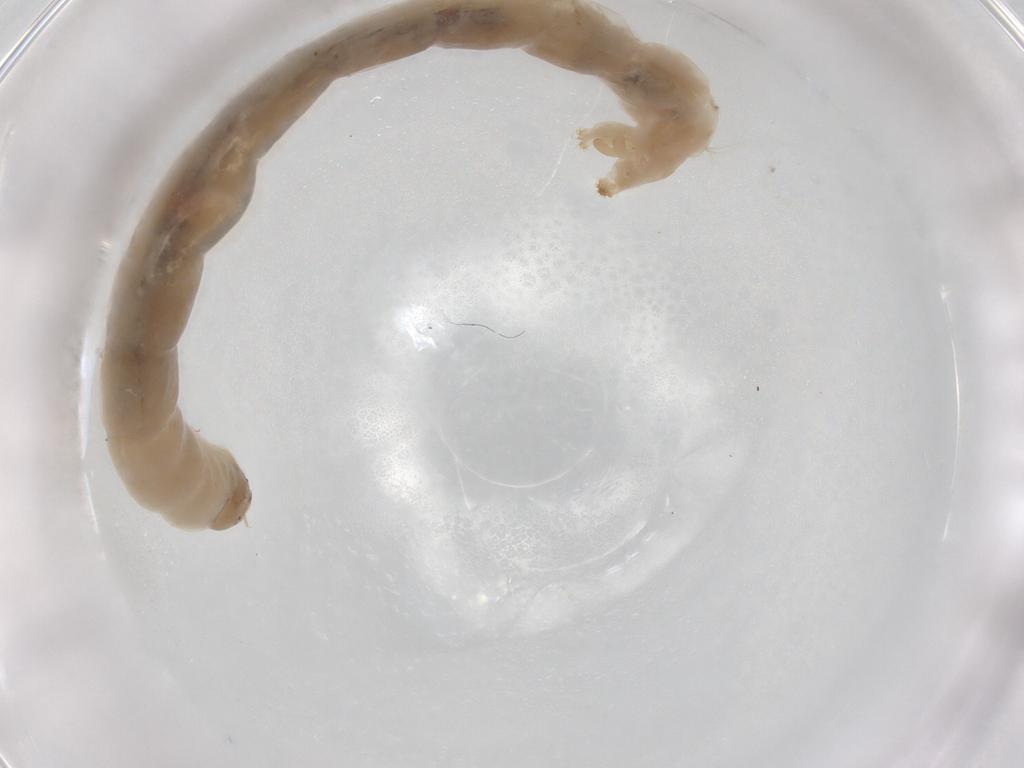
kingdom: Animalia
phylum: Arthropoda
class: Insecta
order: Diptera
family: Chironomidae
